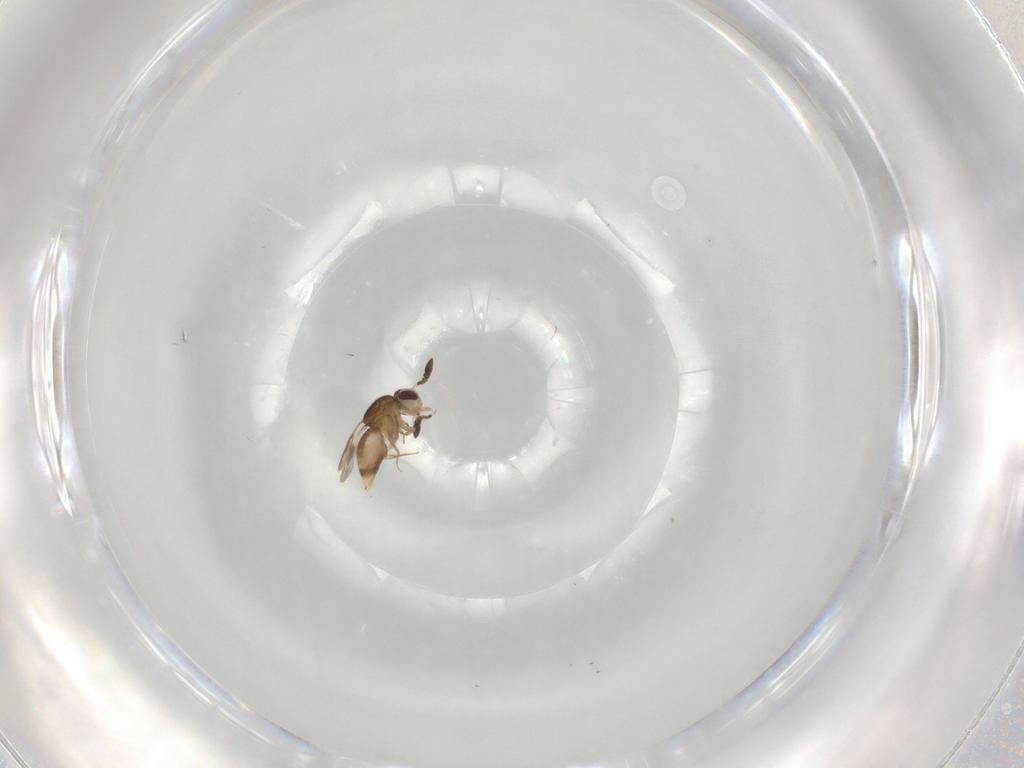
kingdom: Animalia
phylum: Arthropoda
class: Insecta
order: Hymenoptera
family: Ceraphronidae
